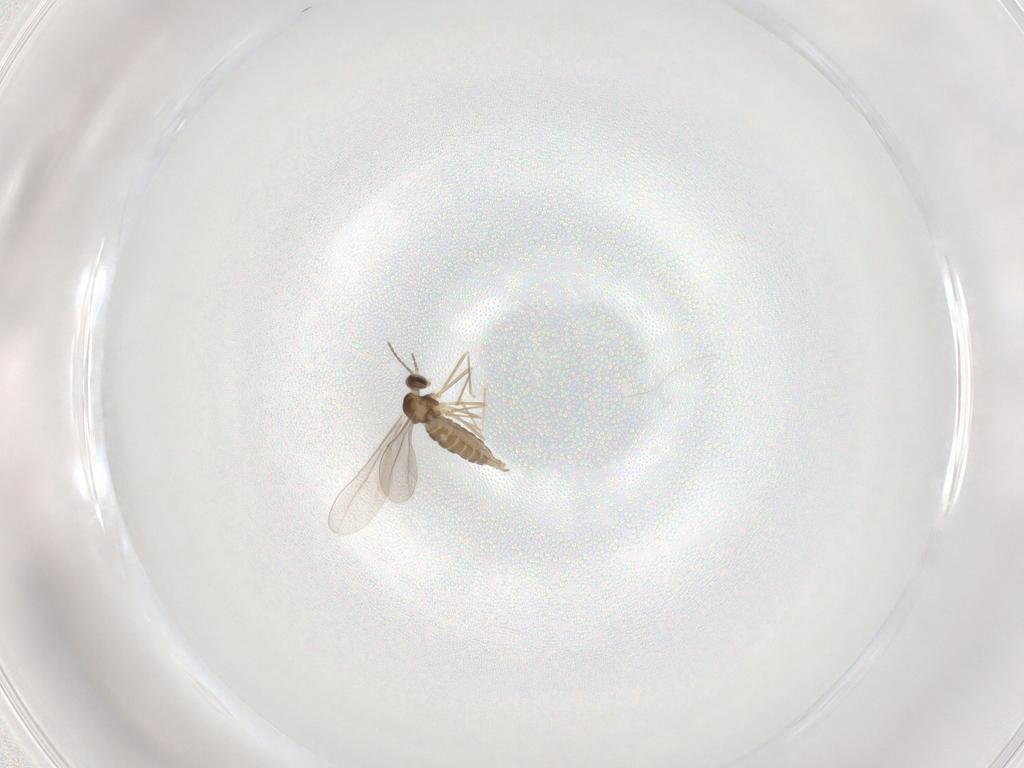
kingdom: Animalia
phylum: Arthropoda
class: Insecta
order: Diptera
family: Cecidomyiidae
